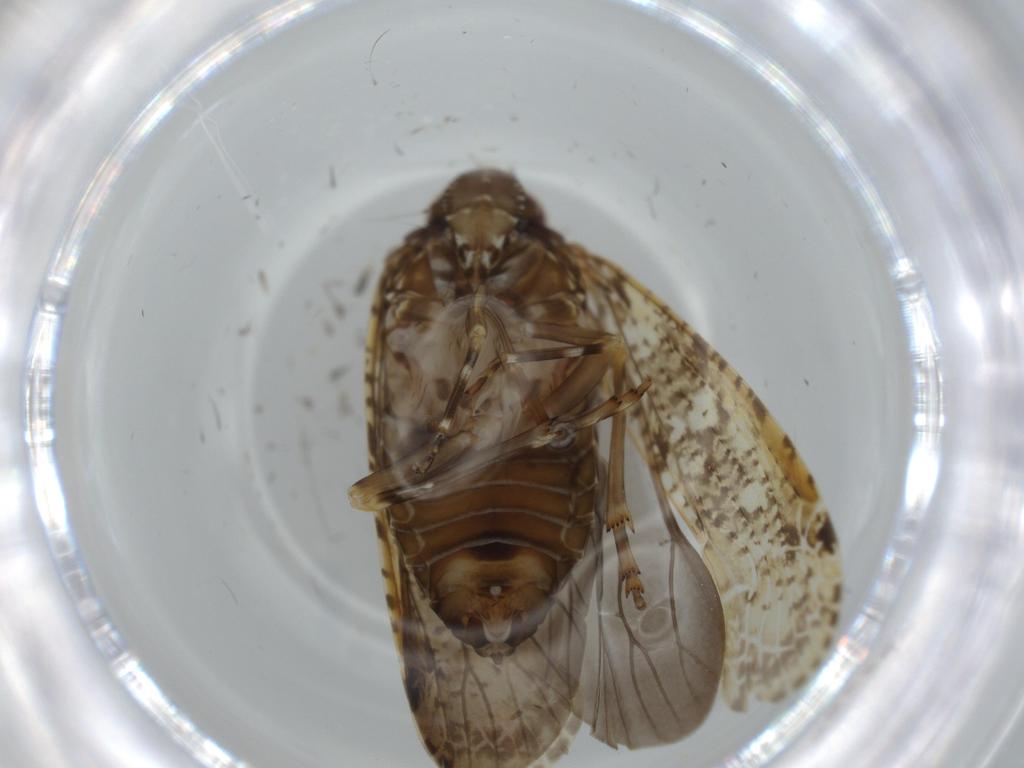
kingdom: Animalia
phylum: Arthropoda
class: Insecta
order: Hemiptera
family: Achilidae
